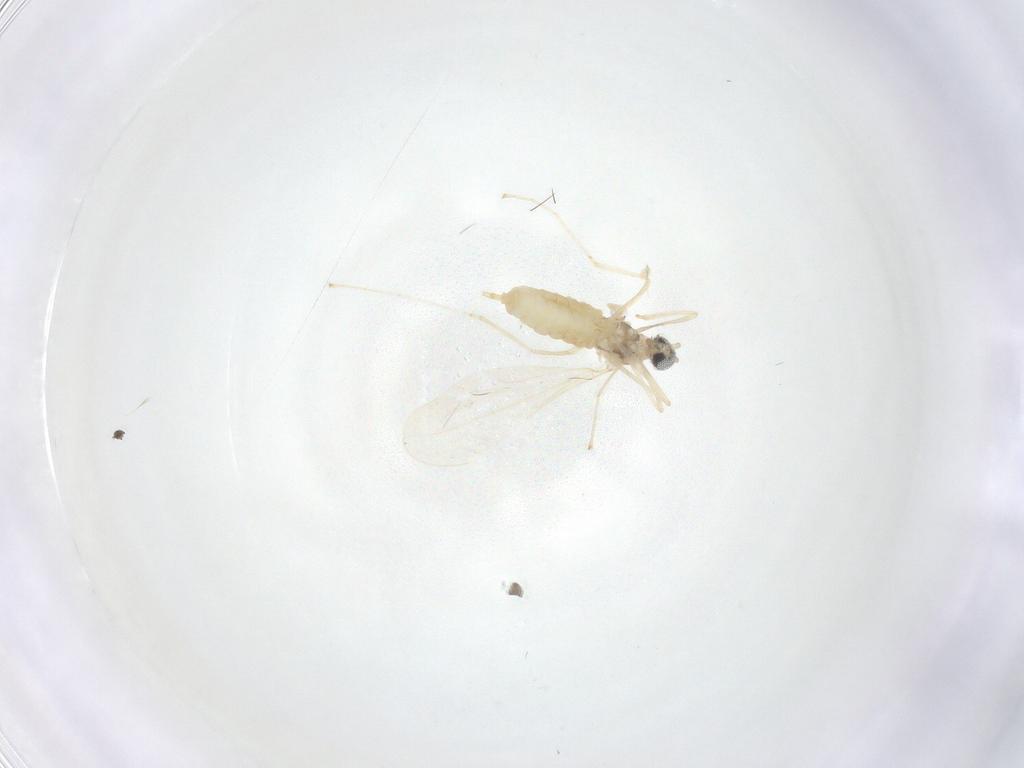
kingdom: Animalia
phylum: Arthropoda
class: Insecta
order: Diptera
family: Cecidomyiidae
